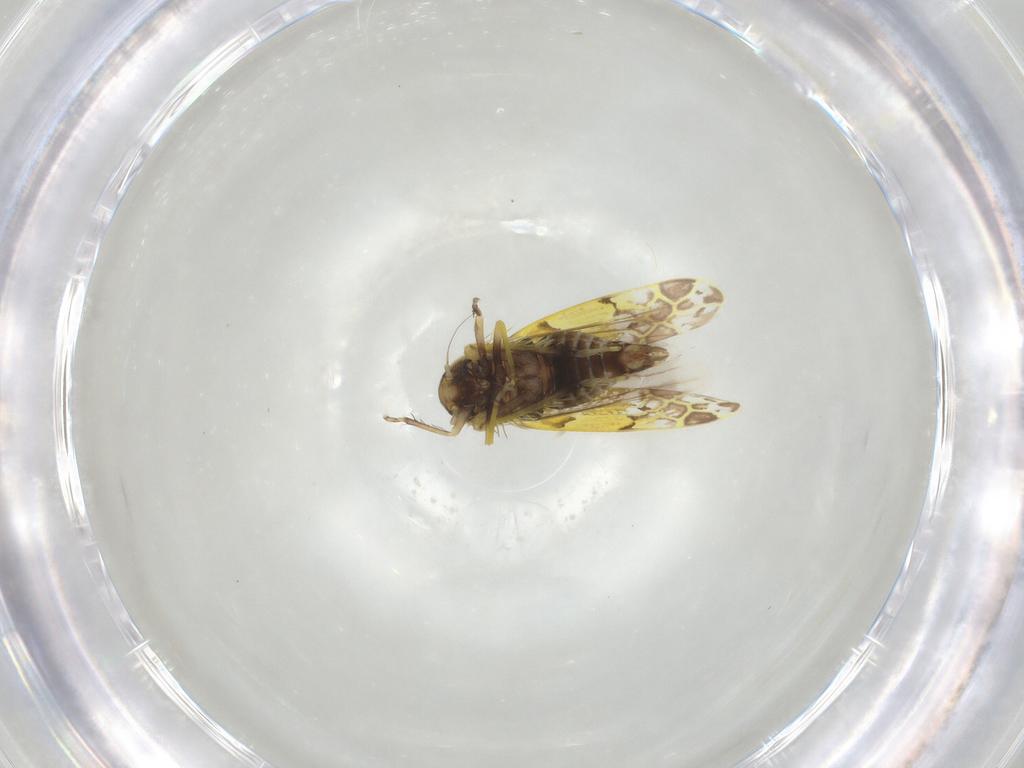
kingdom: Animalia
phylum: Arthropoda
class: Insecta
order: Hemiptera
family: Cicadellidae
